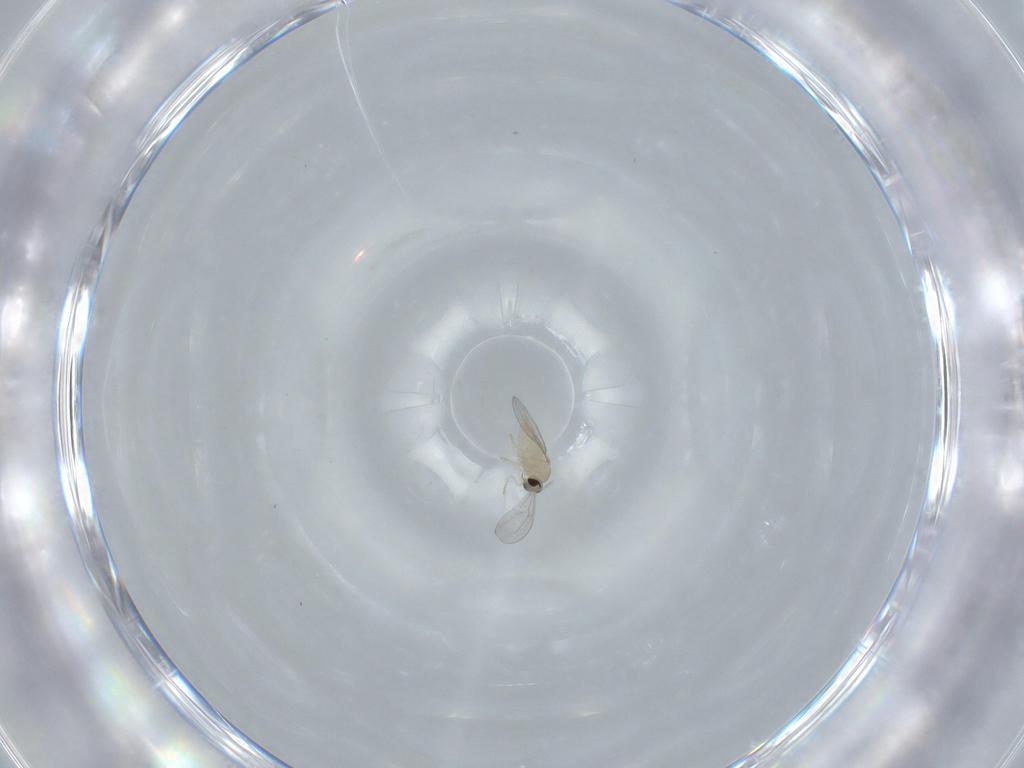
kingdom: Animalia
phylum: Arthropoda
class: Insecta
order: Diptera
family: Cecidomyiidae
